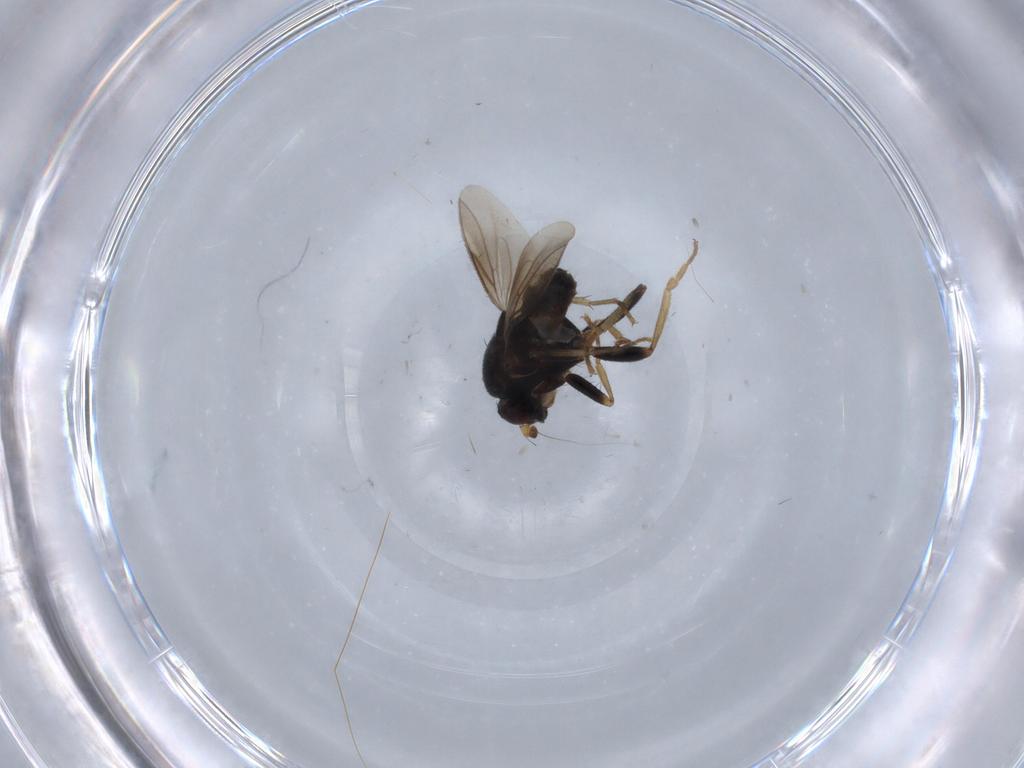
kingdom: Animalia
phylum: Arthropoda
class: Insecta
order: Diptera
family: Sphaeroceridae
